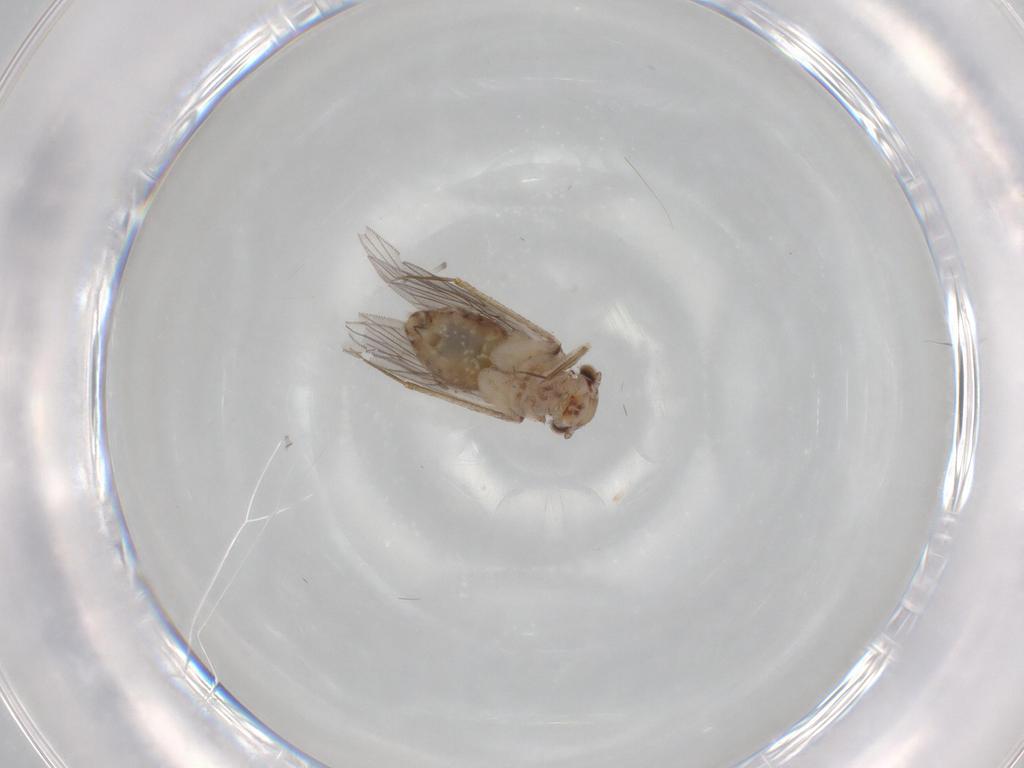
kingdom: Animalia
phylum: Arthropoda
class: Insecta
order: Psocodea
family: Lepidopsocidae
